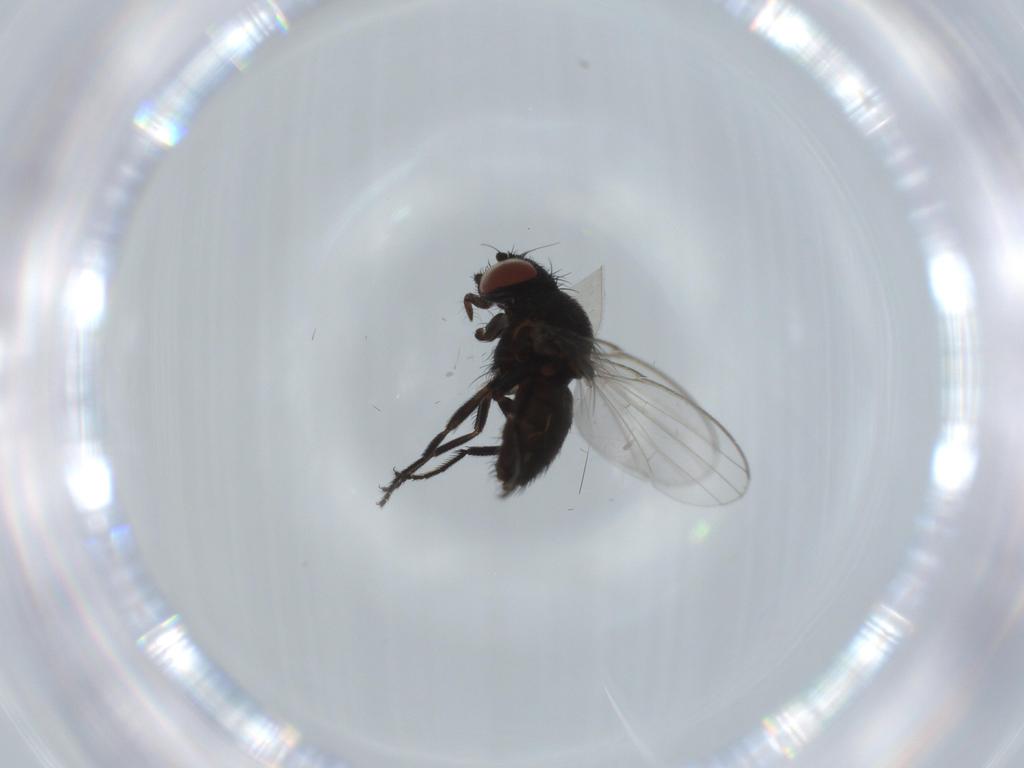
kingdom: Animalia
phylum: Arthropoda
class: Insecta
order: Diptera
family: Milichiidae
